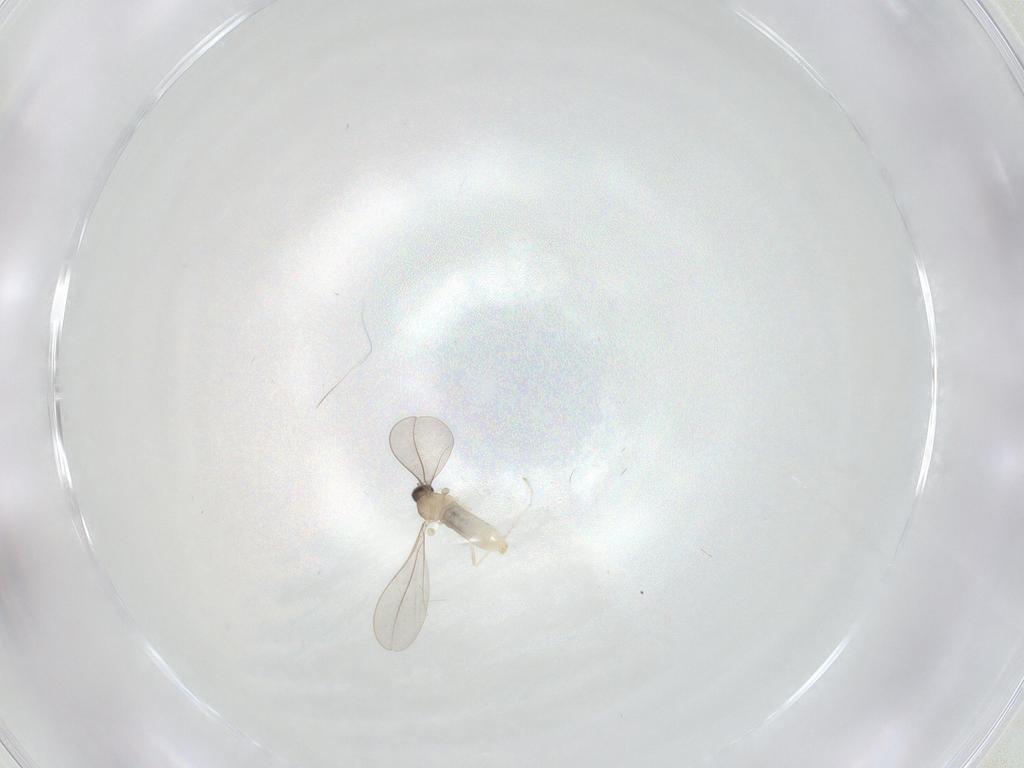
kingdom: Animalia
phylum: Arthropoda
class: Insecta
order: Diptera
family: Cecidomyiidae
